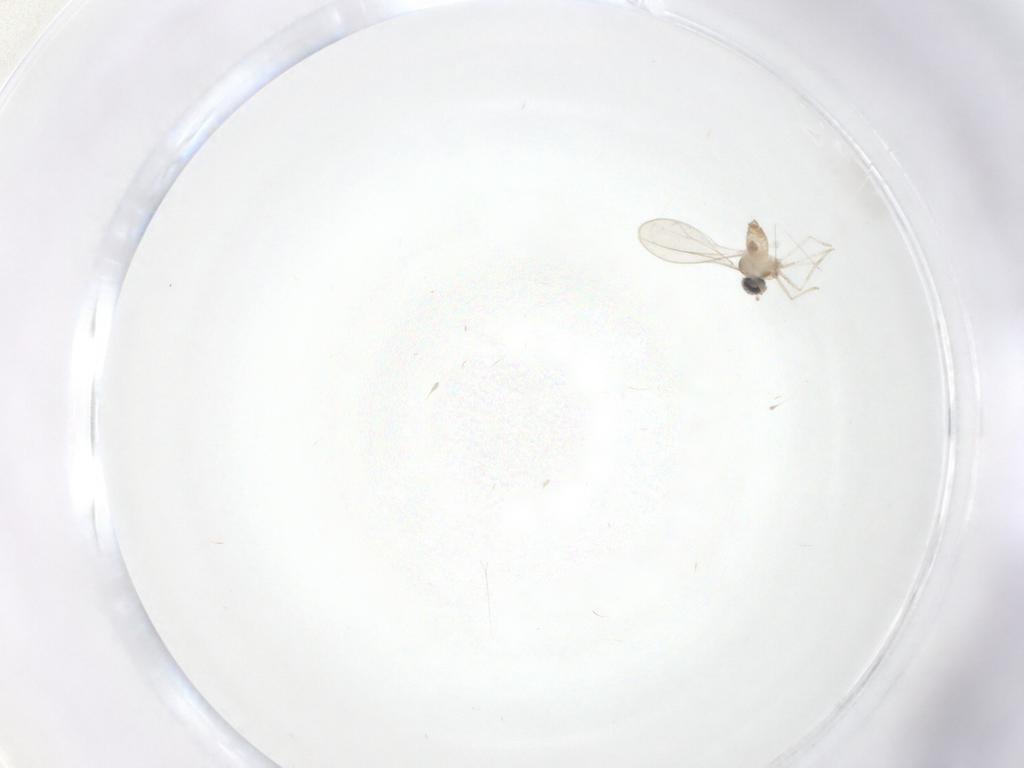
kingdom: Animalia
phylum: Arthropoda
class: Insecta
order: Diptera
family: Cecidomyiidae
